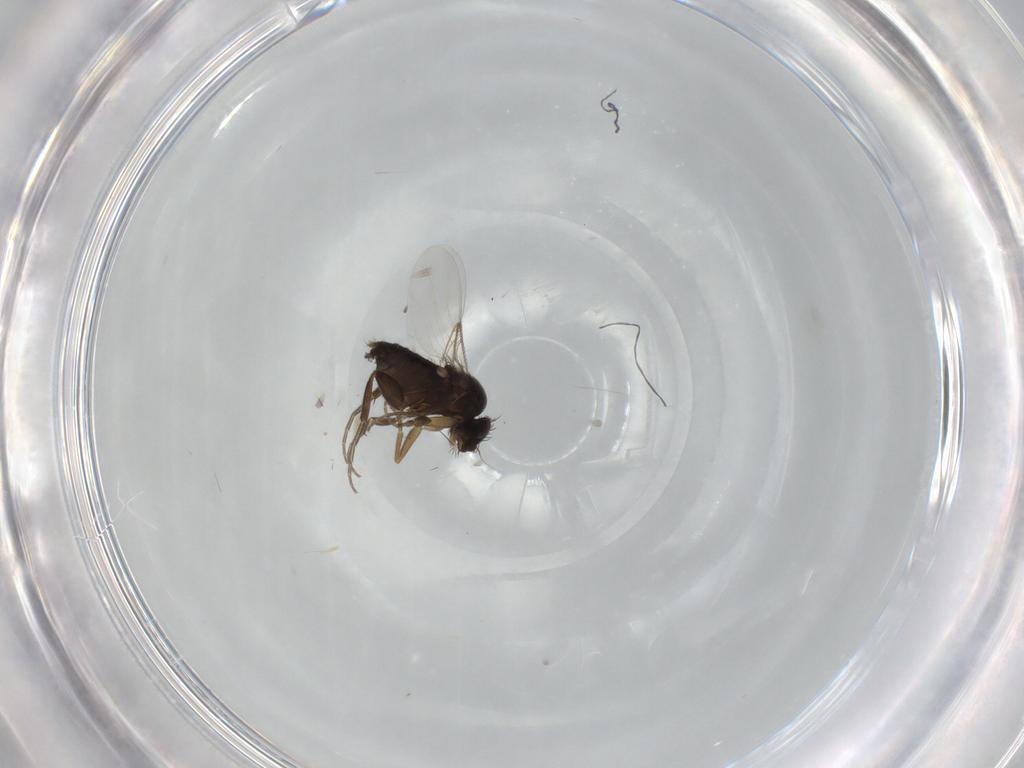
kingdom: Animalia
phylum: Arthropoda
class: Insecta
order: Diptera
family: Phoridae
